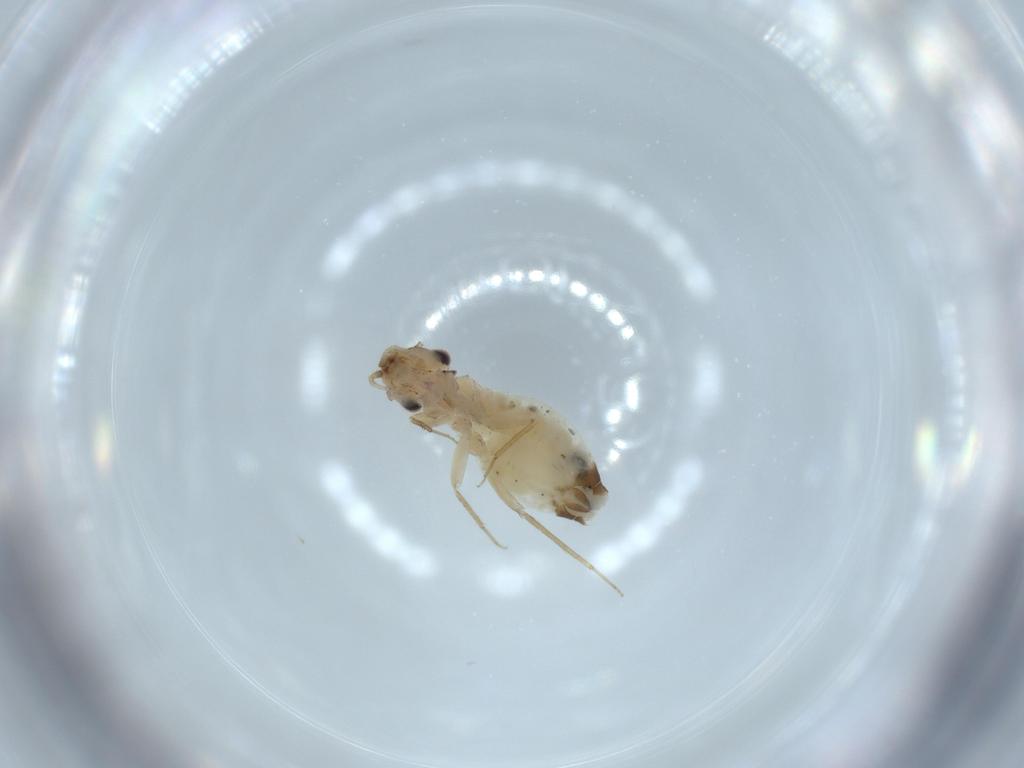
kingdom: Animalia
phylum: Arthropoda
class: Insecta
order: Psocodea
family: Lepidopsocidae
